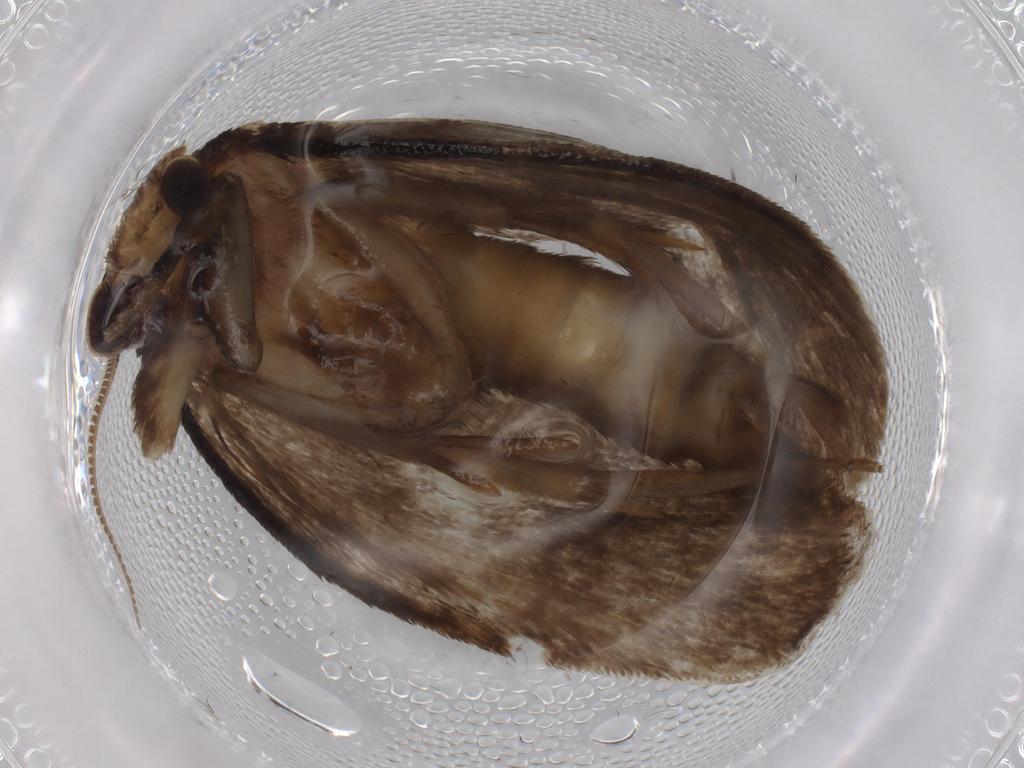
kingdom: Animalia
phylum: Arthropoda
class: Insecta
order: Lepidoptera
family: Tineidae
